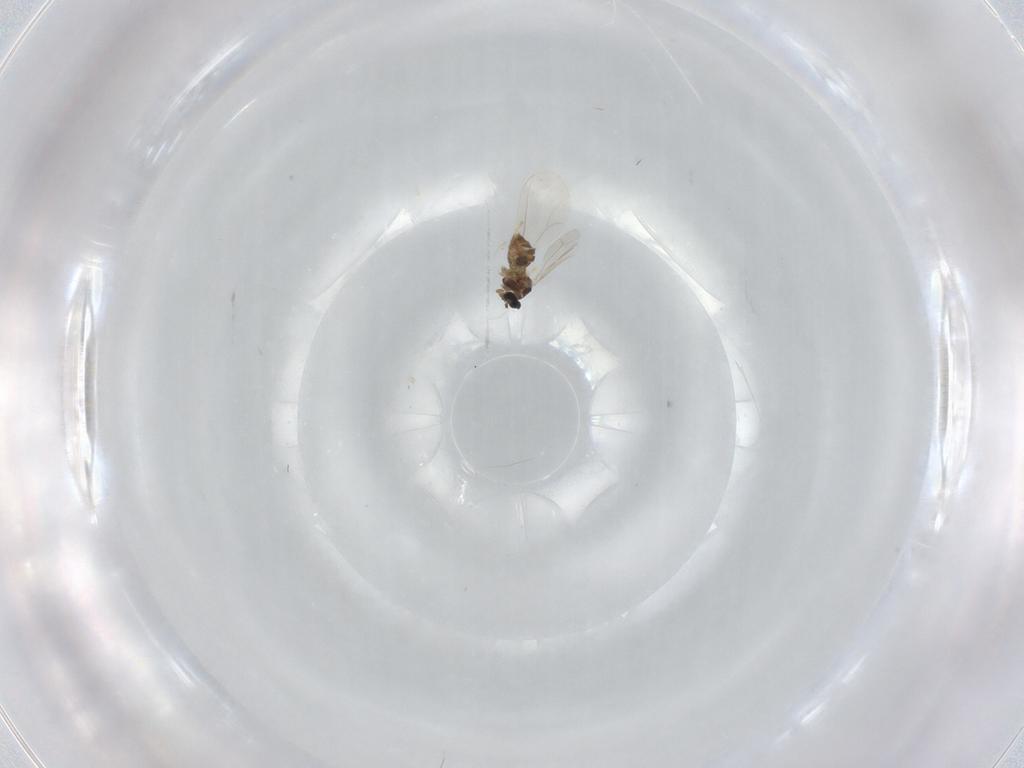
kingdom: Animalia
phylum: Arthropoda
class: Insecta
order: Diptera
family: Cecidomyiidae
